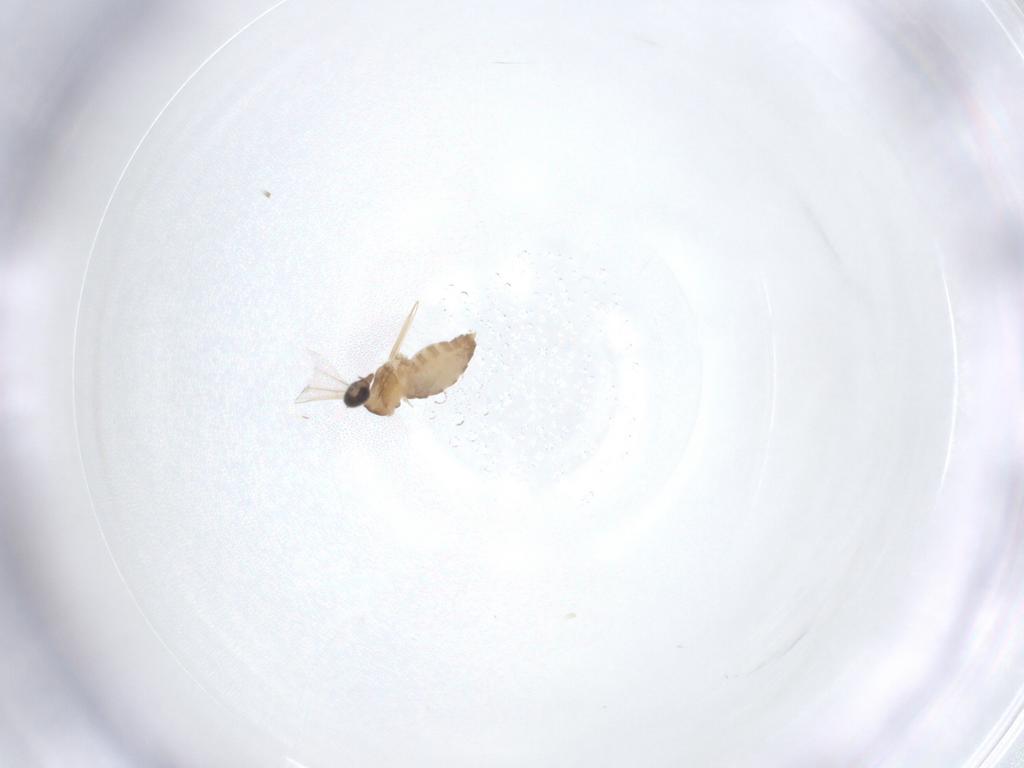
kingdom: Animalia
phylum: Arthropoda
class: Insecta
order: Diptera
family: Cecidomyiidae
